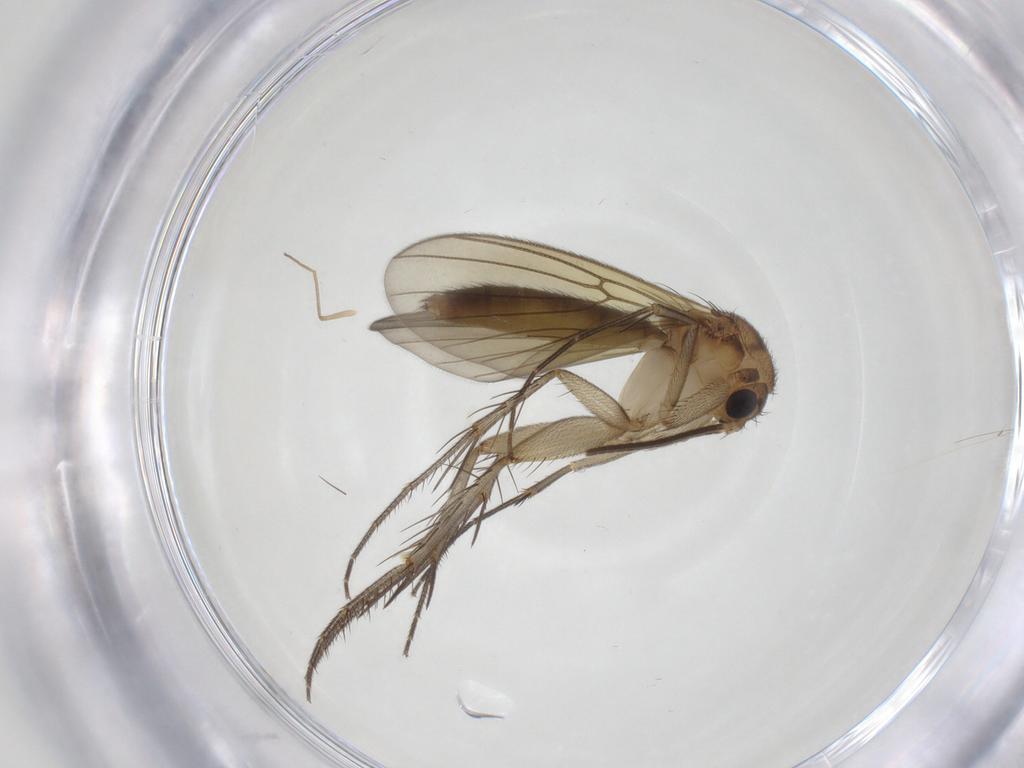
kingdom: Animalia
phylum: Arthropoda
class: Insecta
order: Diptera
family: Mycetophilidae
